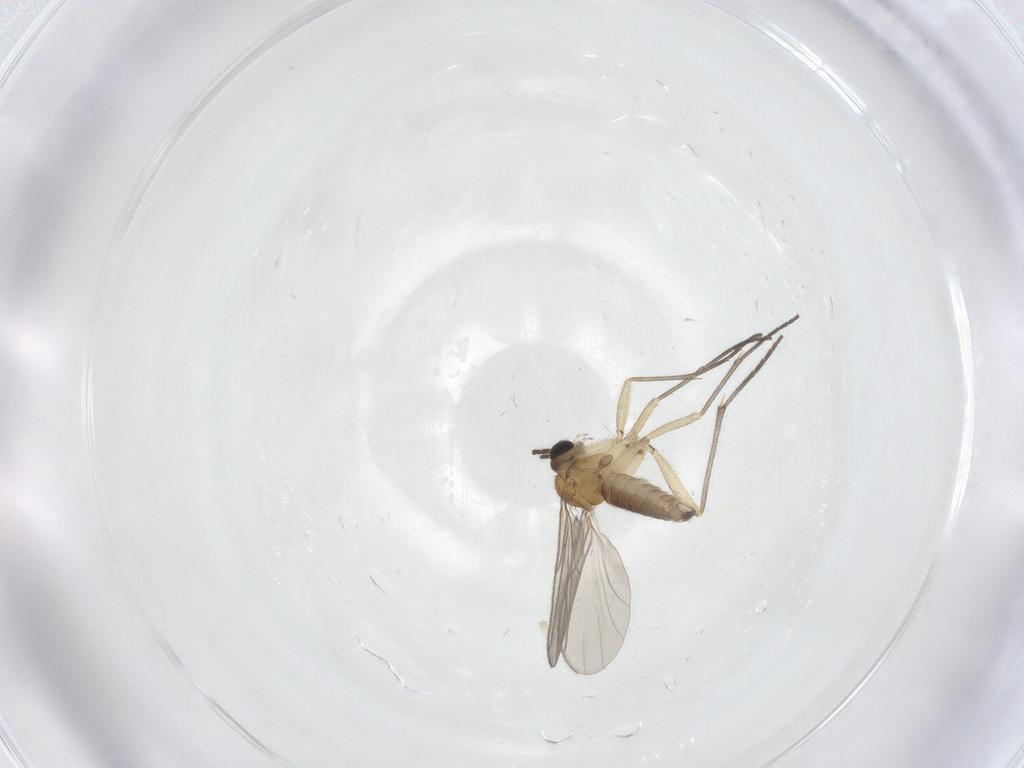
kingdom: Animalia
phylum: Arthropoda
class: Insecta
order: Diptera
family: Sciaridae
